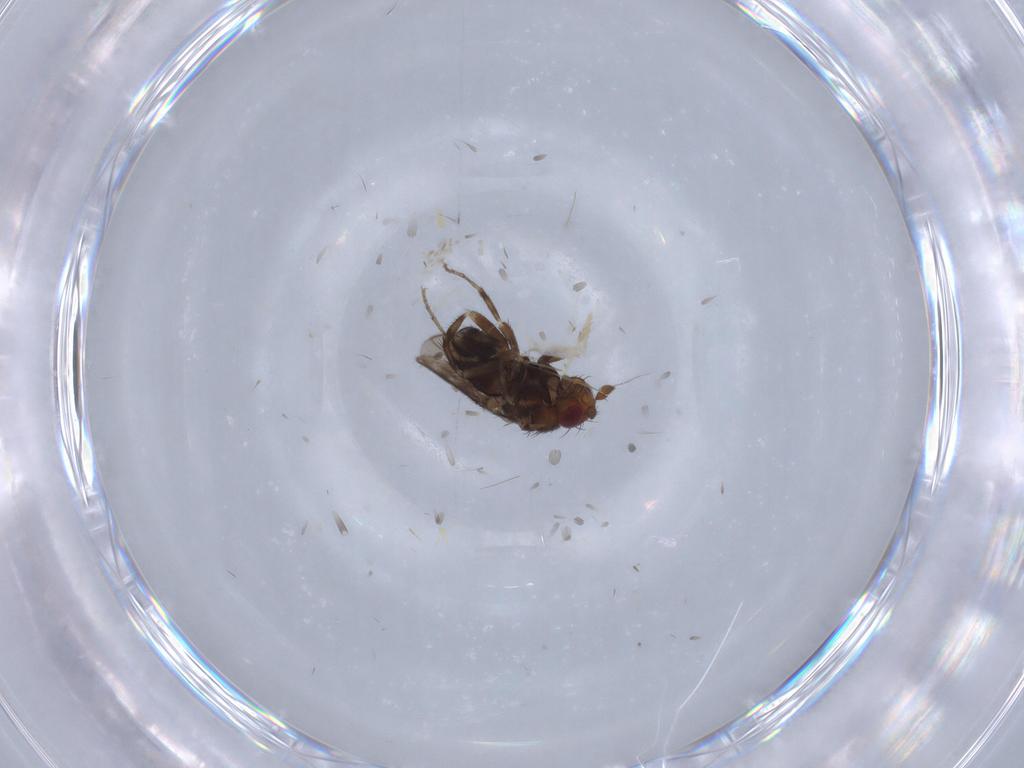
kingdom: Animalia
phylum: Arthropoda
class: Insecta
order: Diptera
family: Sphaeroceridae
